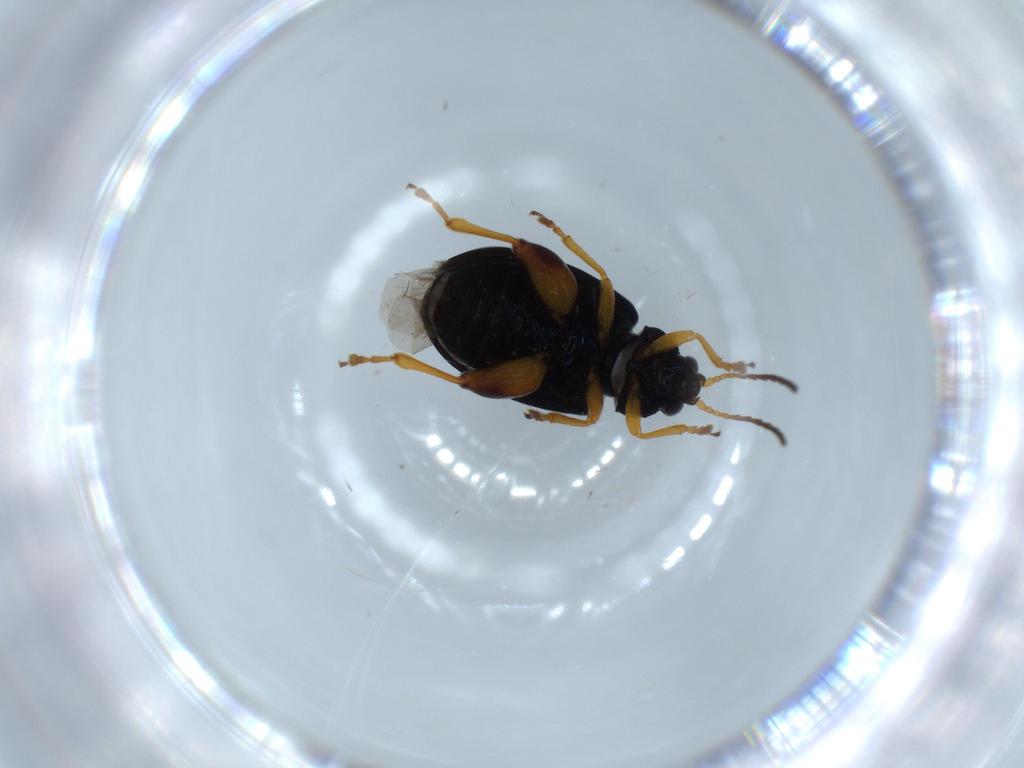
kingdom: Animalia
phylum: Arthropoda
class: Insecta
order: Coleoptera
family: Chrysomelidae
